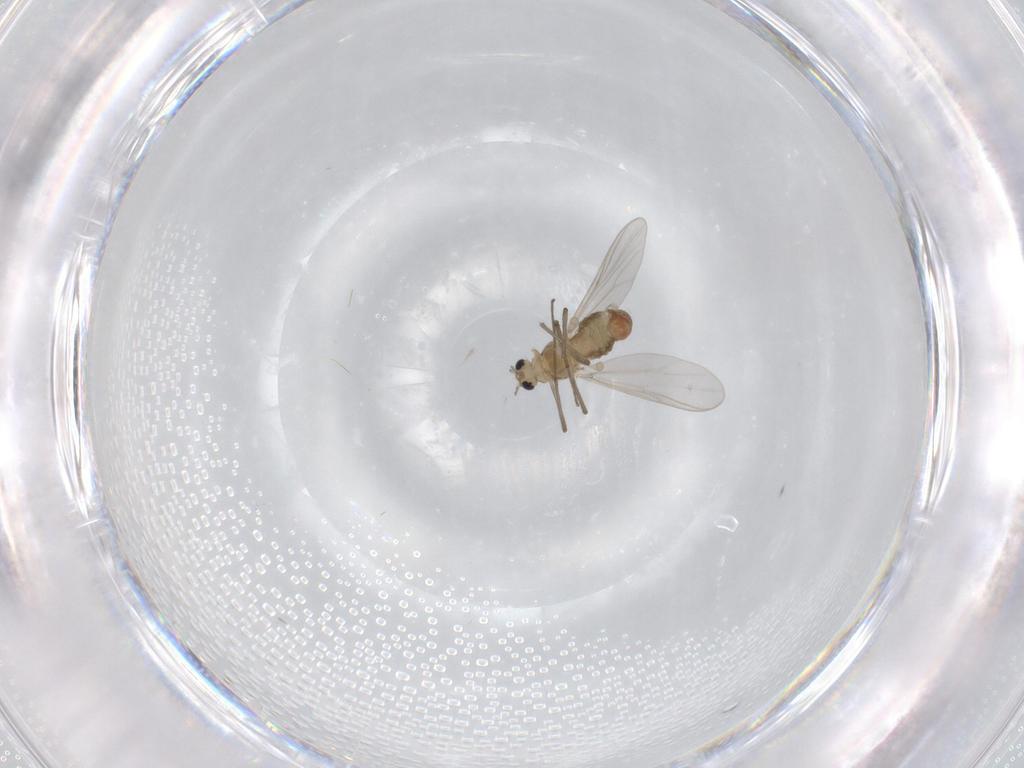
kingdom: Animalia
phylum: Arthropoda
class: Insecta
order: Diptera
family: Chironomidae
